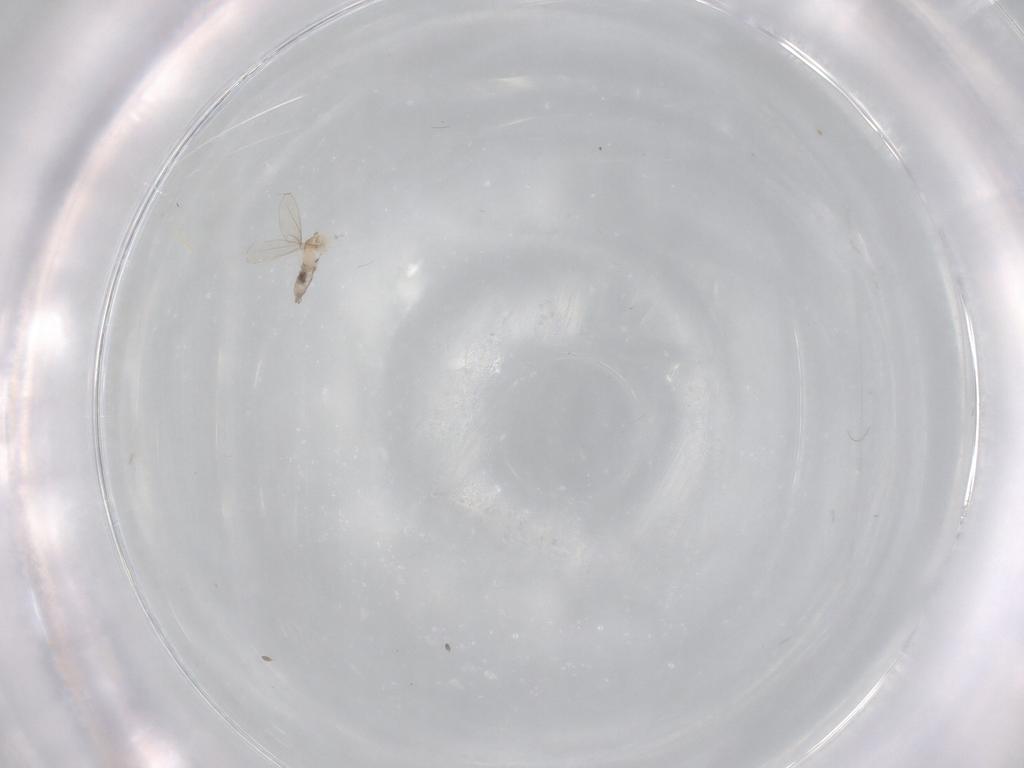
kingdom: Animalia
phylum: Arthropoda
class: Insecta
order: Diptera
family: Cecidomyiidae
